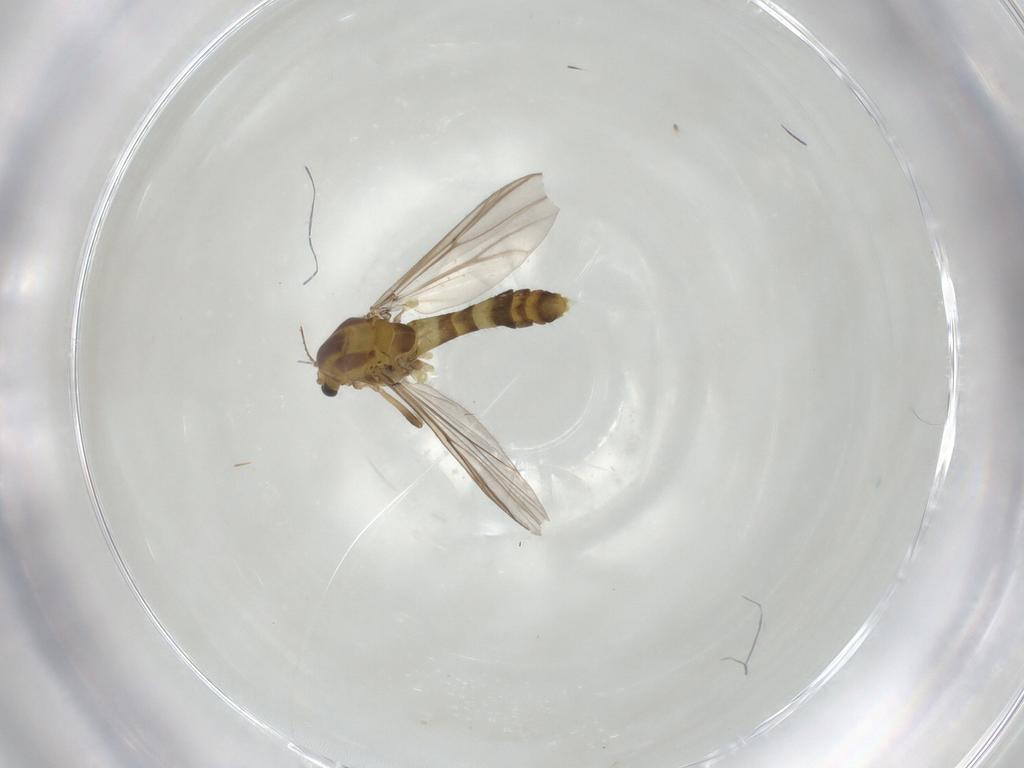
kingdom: Animalia
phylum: Arthropoda
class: Insecta
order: Diptera
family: Chironomidae
